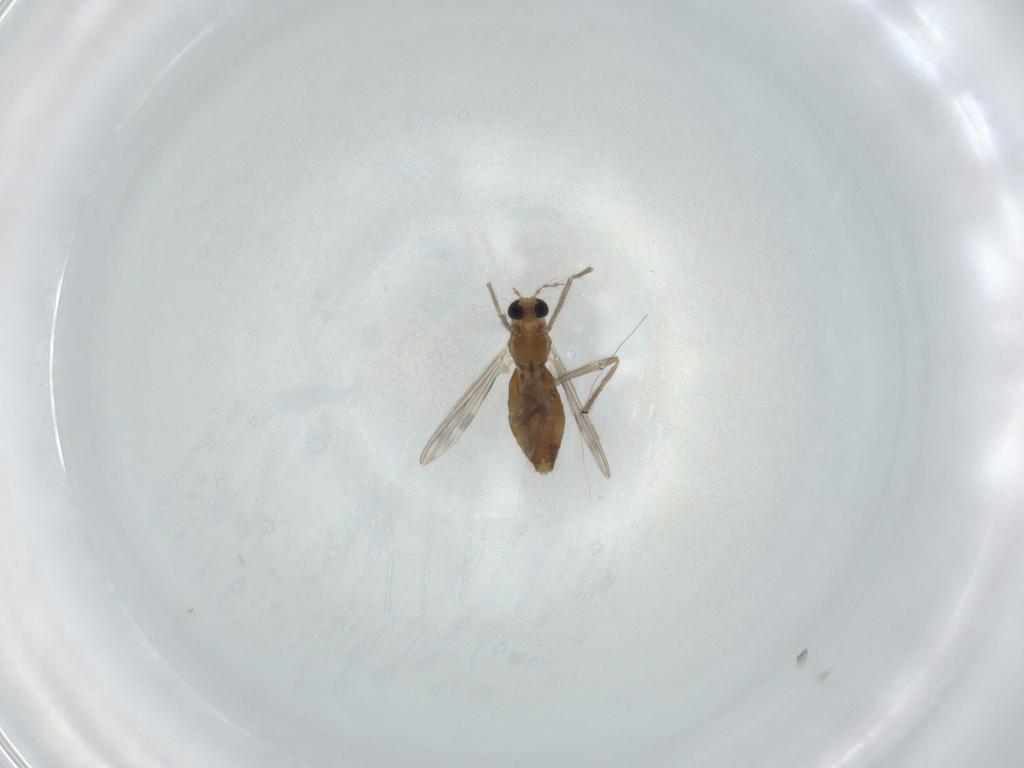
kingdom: Animalia
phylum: Arthropoda
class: Insecta
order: Diptera
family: Chironomidae
